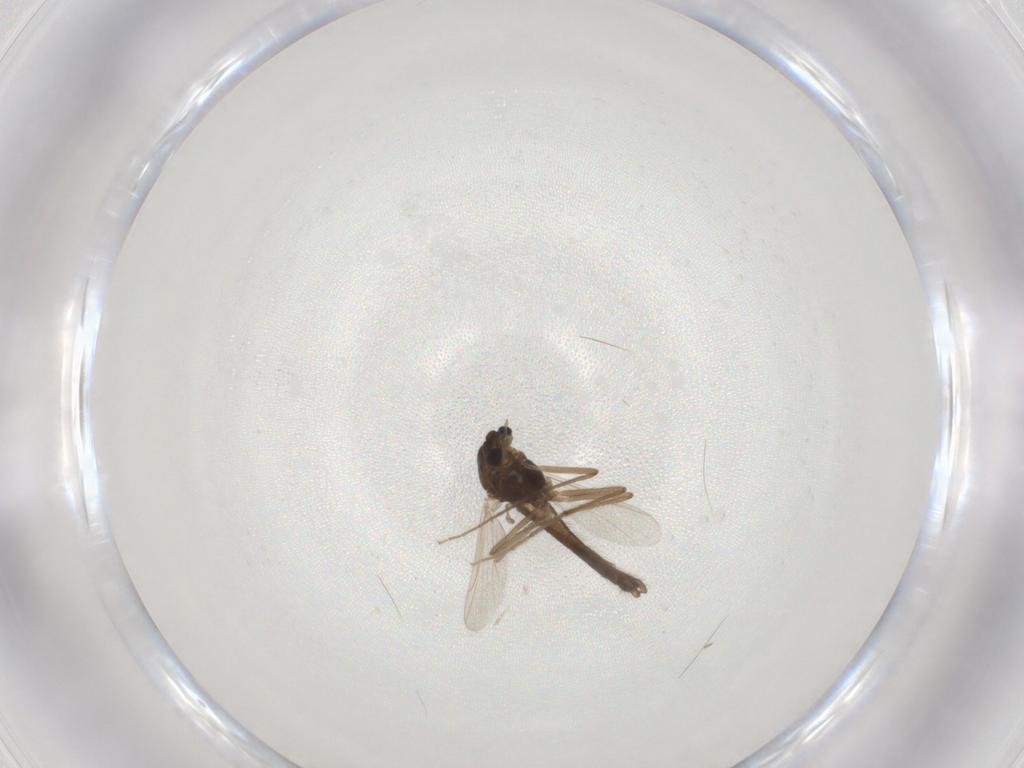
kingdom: Animalia
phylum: Arthropoda
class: Insecta
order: Diptera
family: Chironomidae
